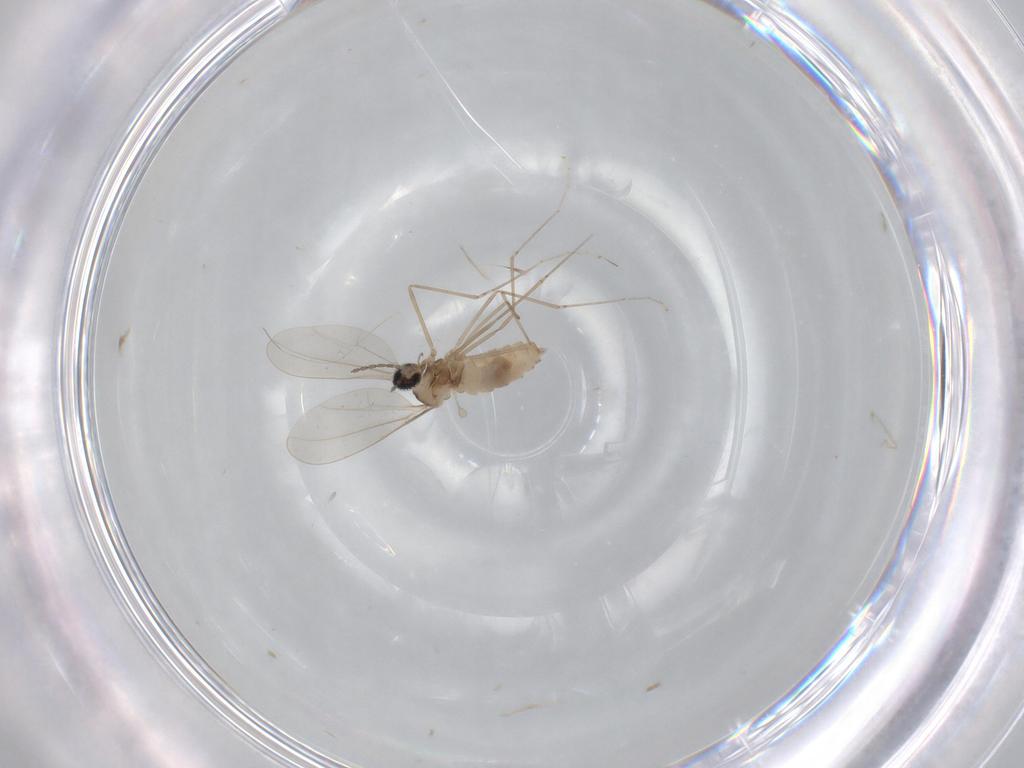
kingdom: Animalia
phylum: Arthropoda
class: Insecta
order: Diptera
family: Cecidomyiidae
